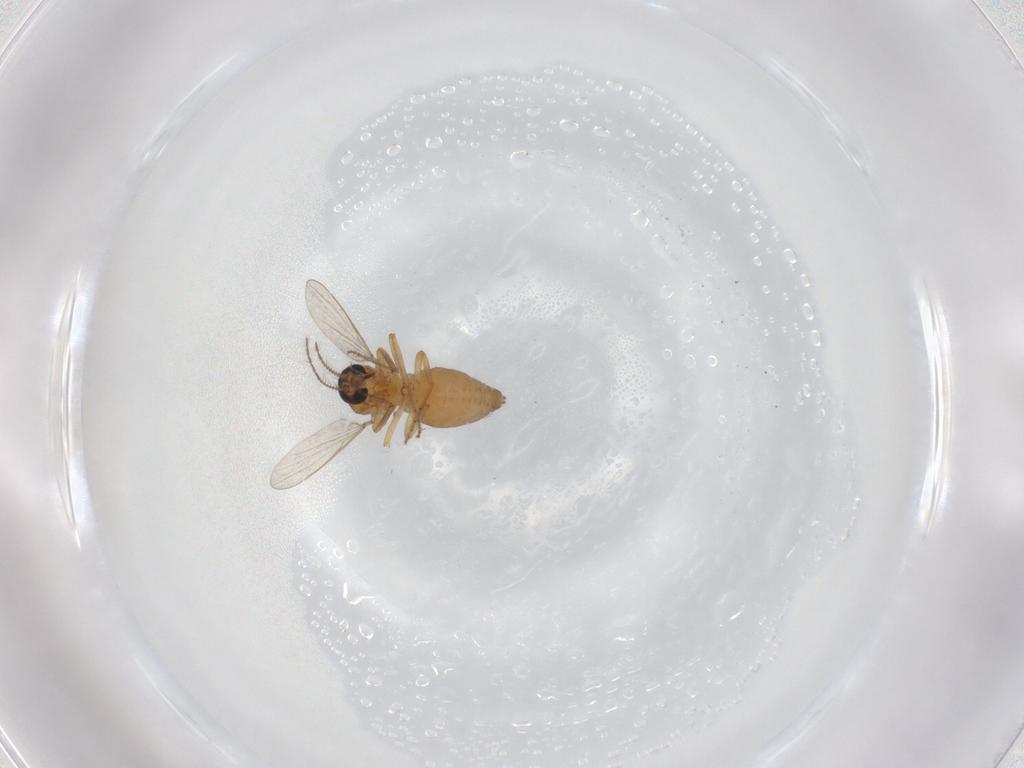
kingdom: Animalia
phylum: Arthropoda
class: Insecta
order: Diptera
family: Ceratopogonidae
